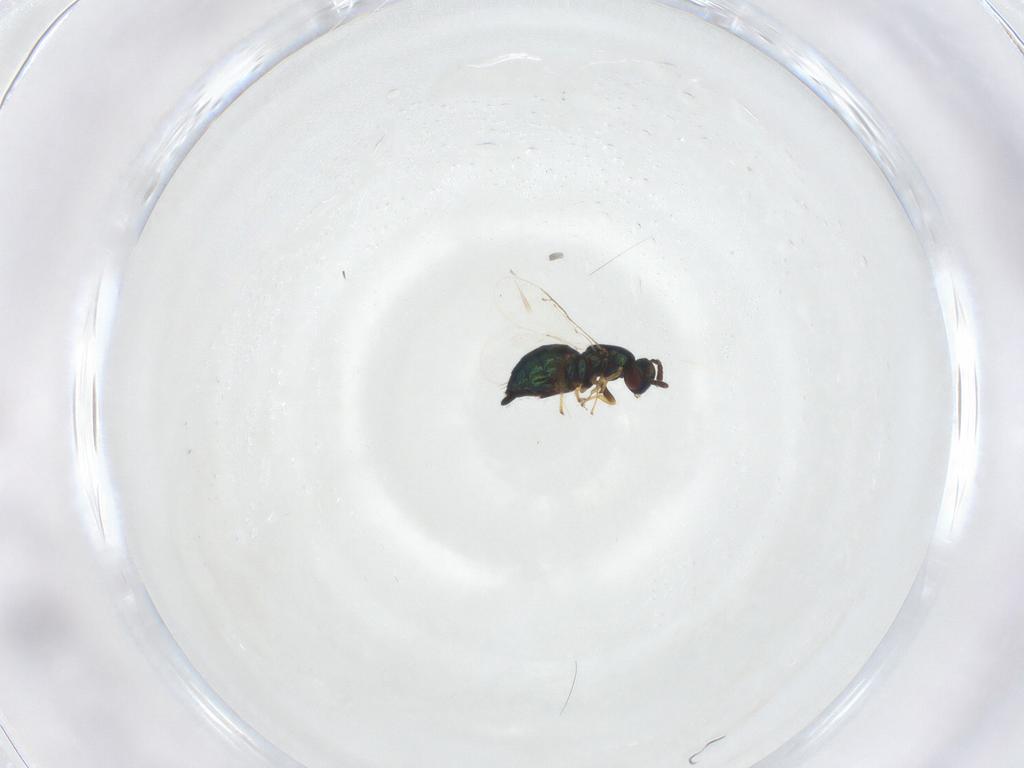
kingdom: Animalia
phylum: Arthropoda
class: Insecta
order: Hymenoptera
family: Pteromalidae
